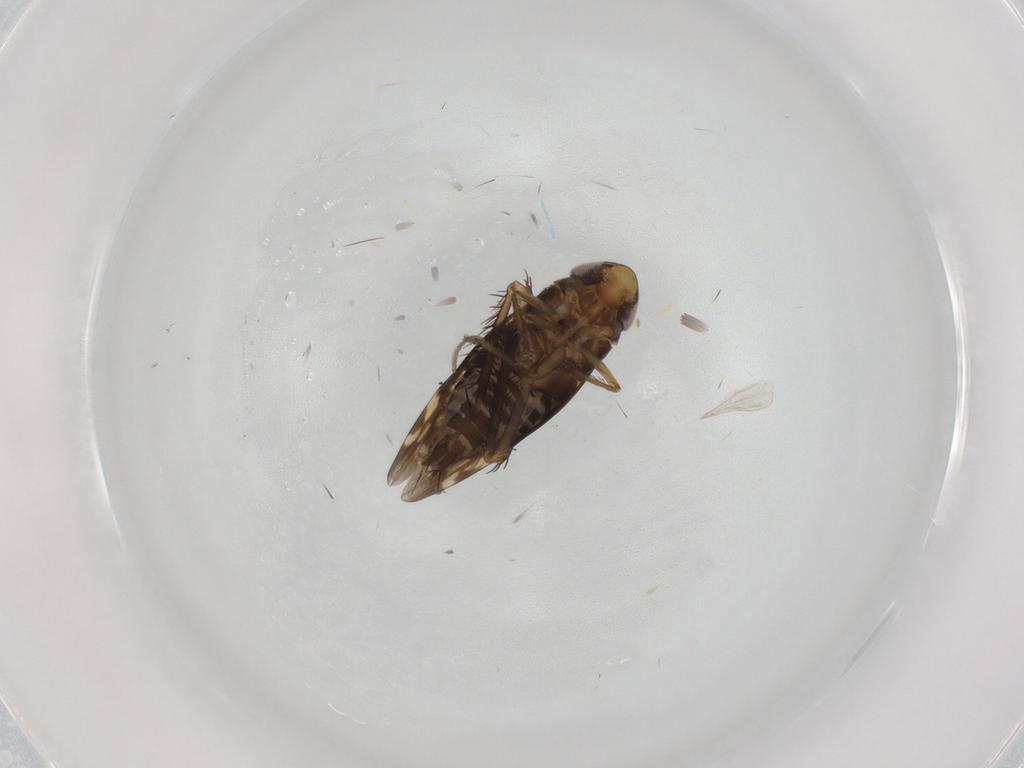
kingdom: Animalia
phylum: Arthropoda
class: Insecta
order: Hemiptera
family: Cicadellidae
